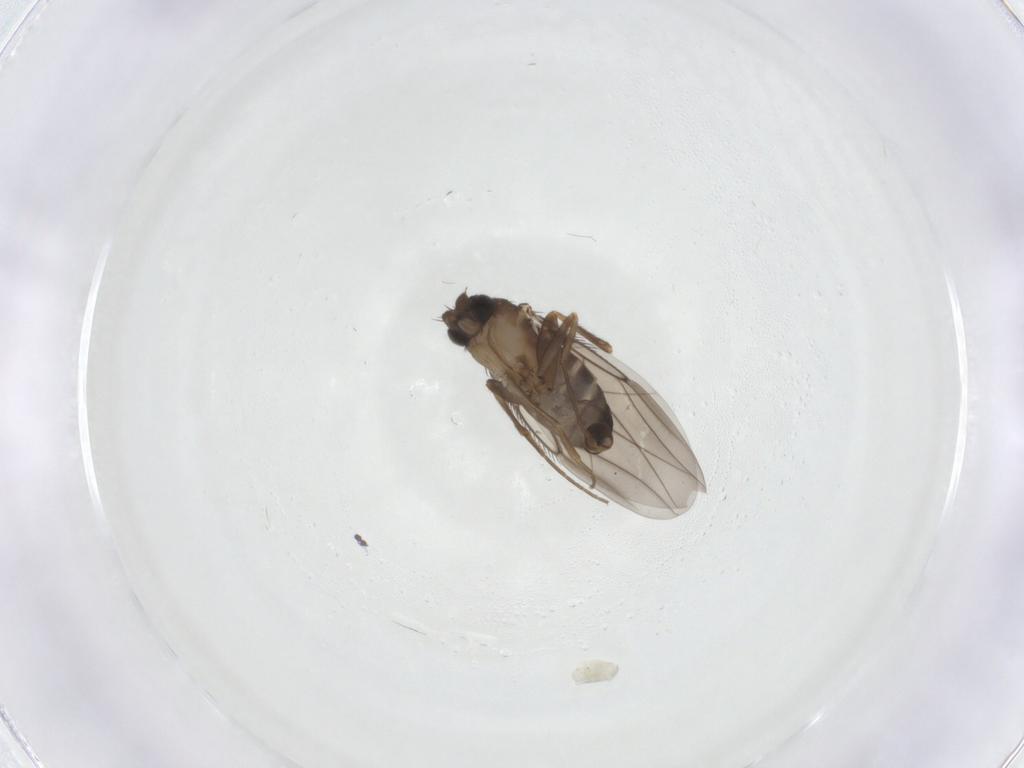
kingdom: Animalia
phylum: Arthropoda
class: Insecta
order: Diptera
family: Phoridae
